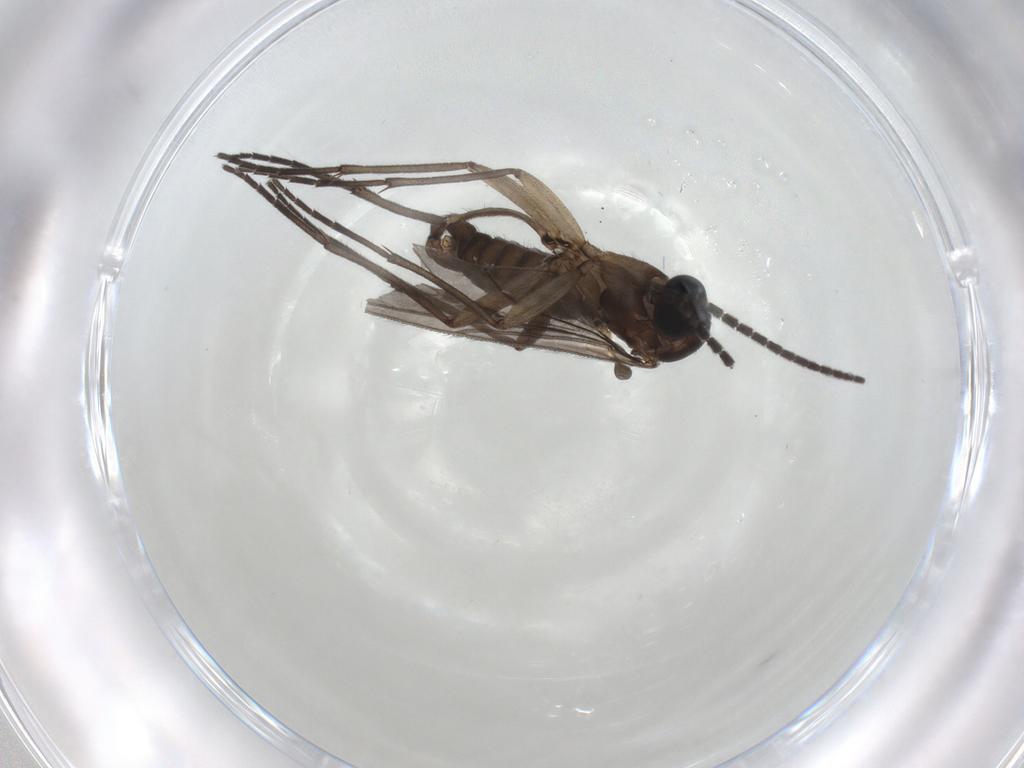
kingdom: Animalia
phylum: Arthropoda
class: Insecta
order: Diptera
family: Sciaridae
